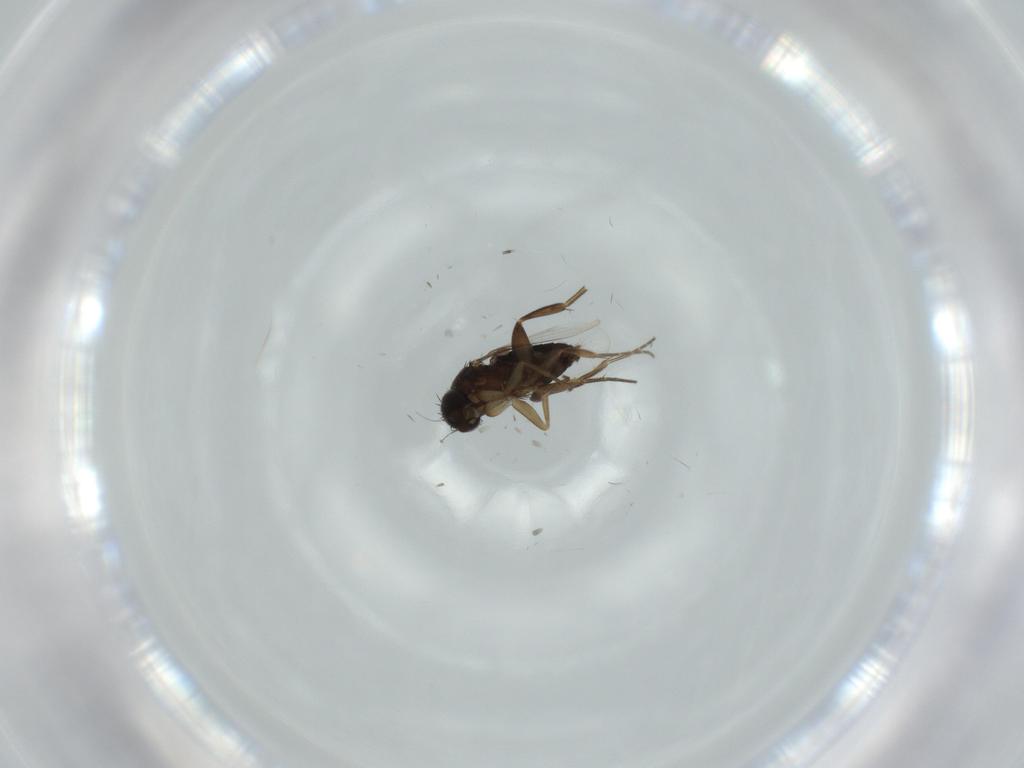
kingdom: Animalia
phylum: Arthropoda
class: Insecta
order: Diptera
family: Phoridae
